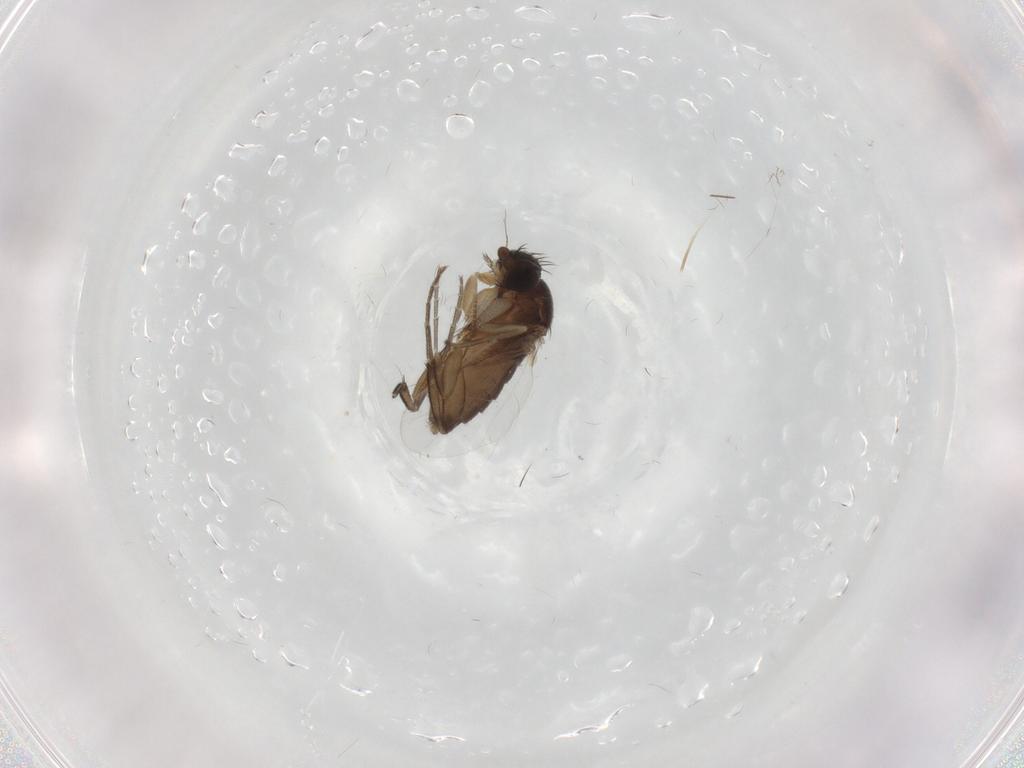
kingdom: Animalia
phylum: Arthropoda
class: Insecta
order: Diptera
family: Phoridae
